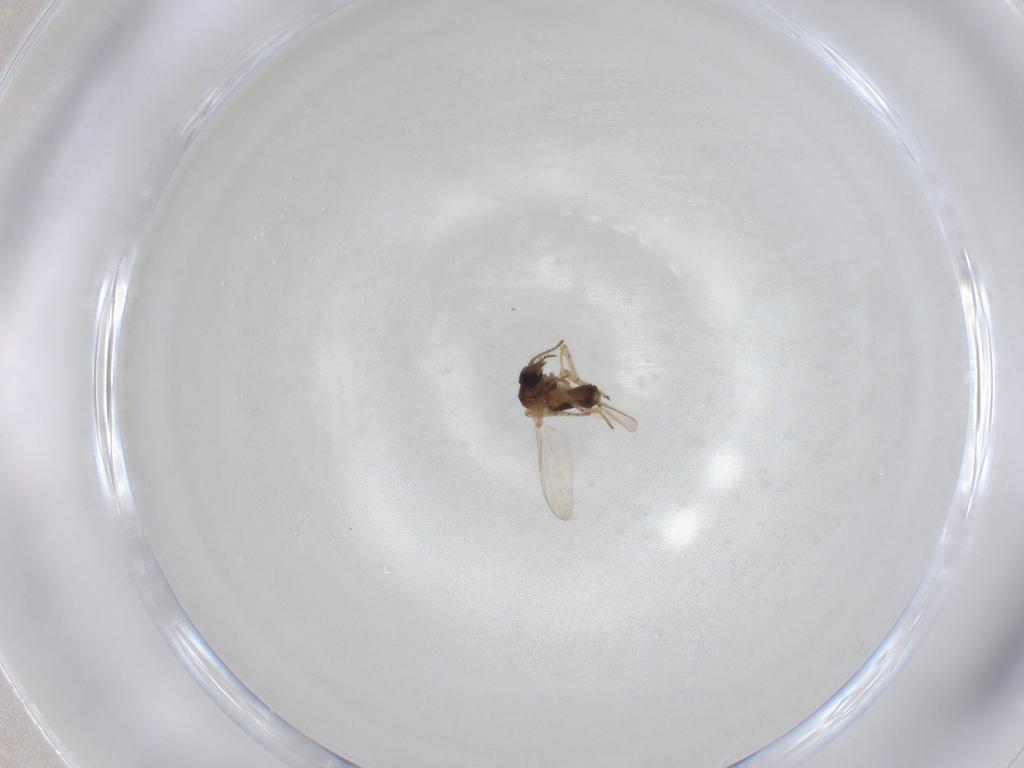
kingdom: Animalia
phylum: Arthropoda
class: Insecta
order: Diptera
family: Ceratopogonidae
